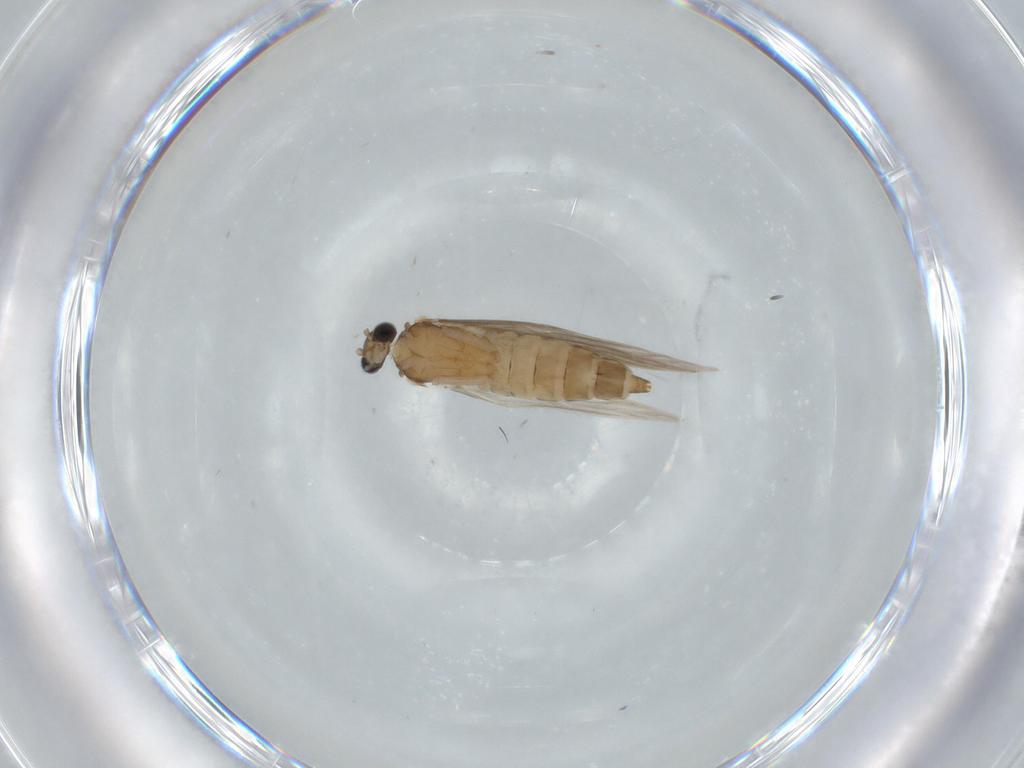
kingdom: Animalia
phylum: Arthropoda
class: Insecta
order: Trichoptera
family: Hydroptilidae
